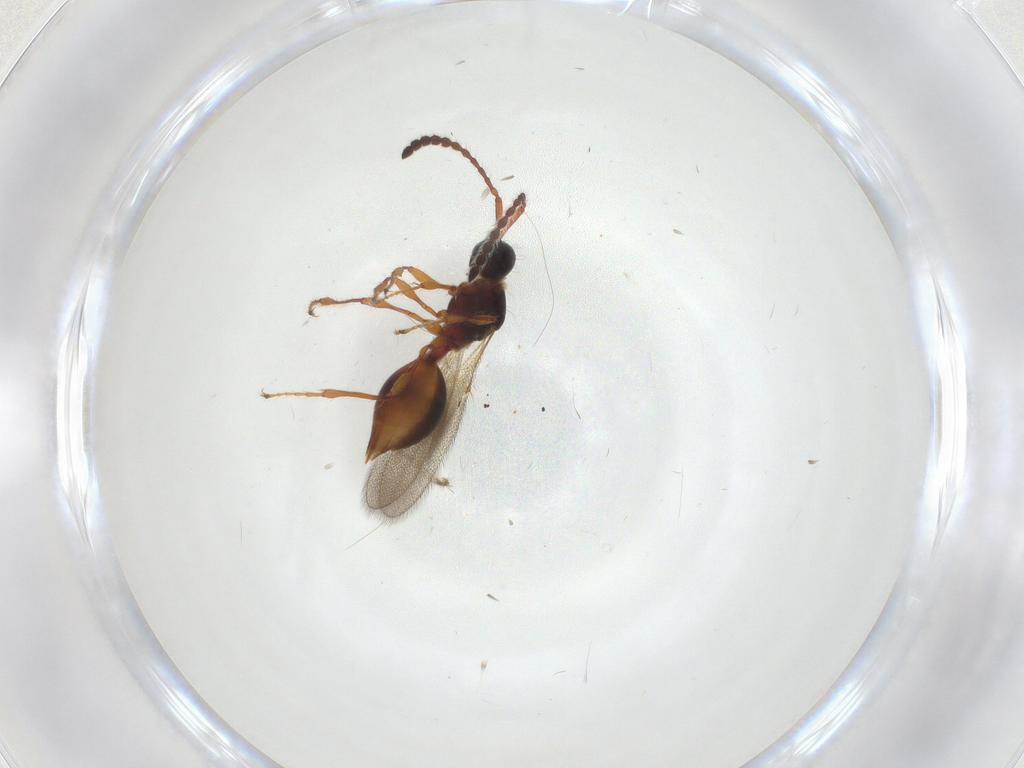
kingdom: Animalia
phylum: Arthropoda
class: Insecta
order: Hymenoptera
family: Diapriidae
